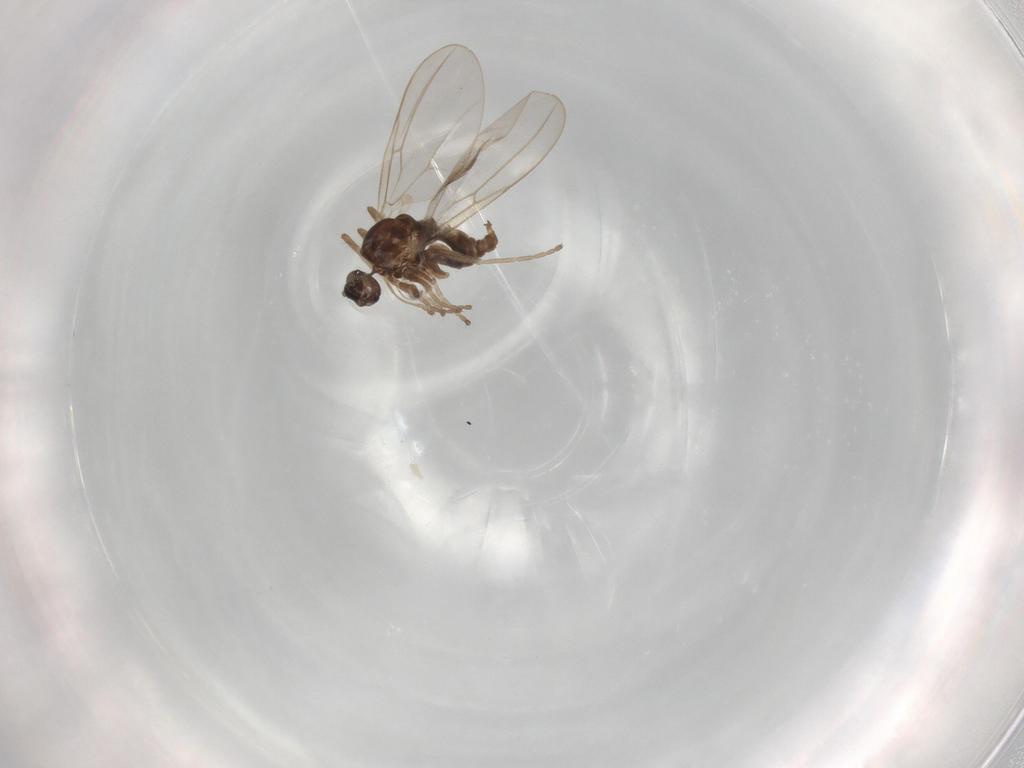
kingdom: Animalia
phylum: Arthropoda
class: Insecta
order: Diptera
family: Cecidomyiidae
